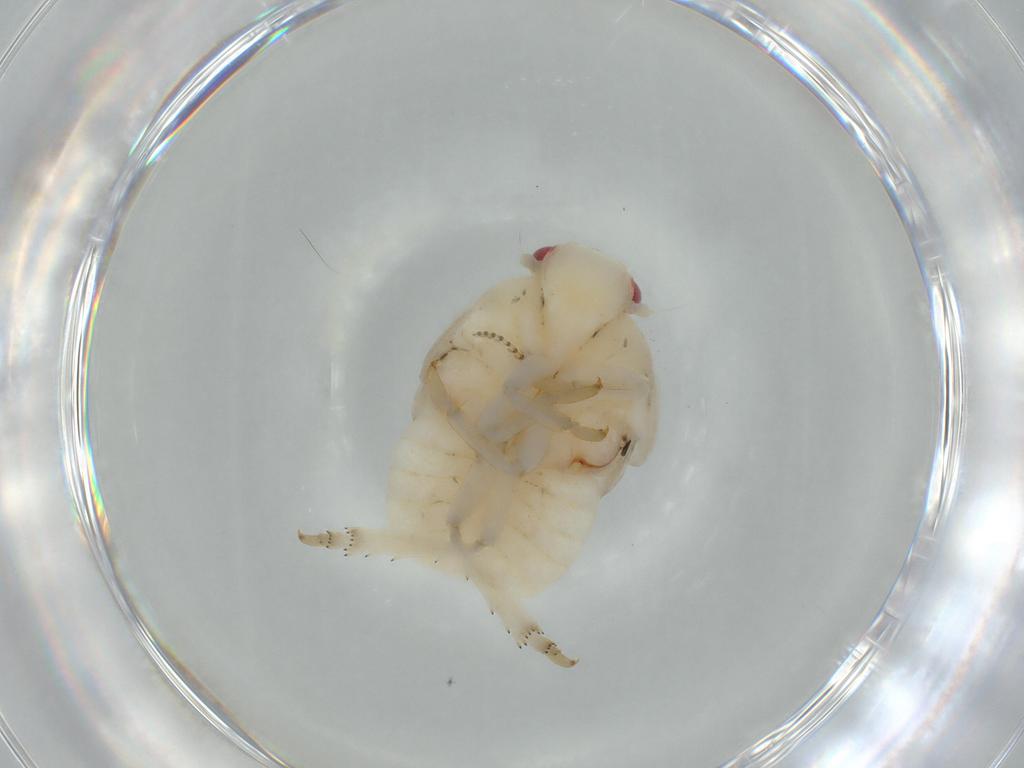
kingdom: Animalia
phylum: Arthropoda
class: Insecta
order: Hemiptera
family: Flatidae
